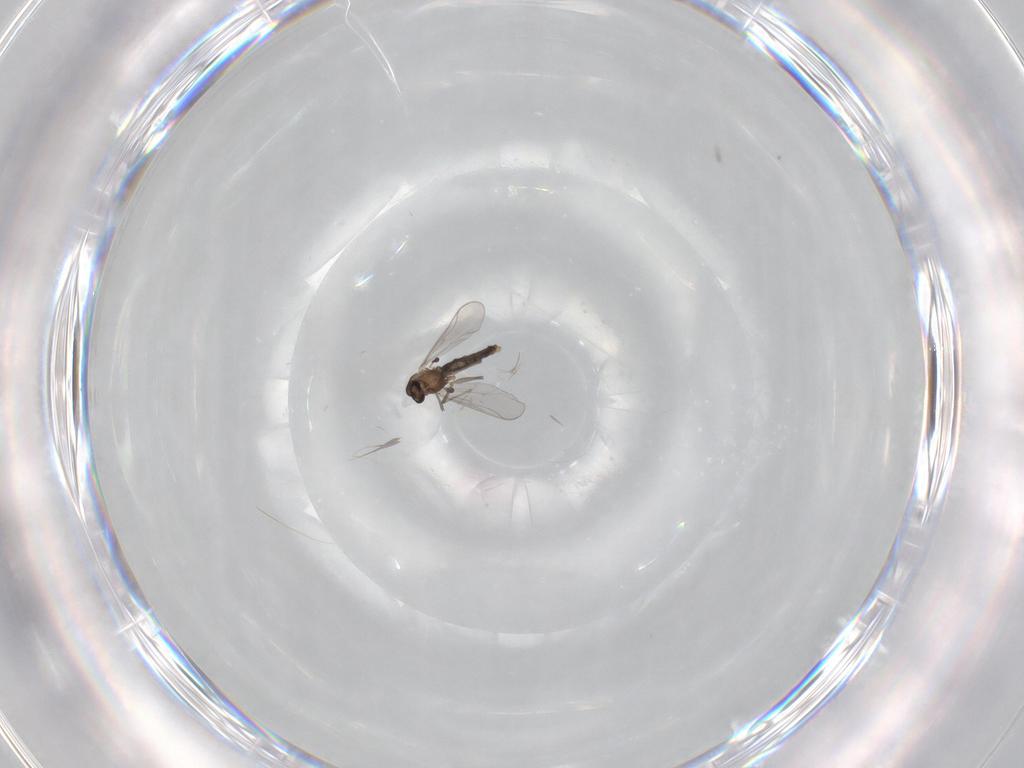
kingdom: Animalia
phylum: Arthropoda
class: Insecta
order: Diptera
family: Chironomidae
